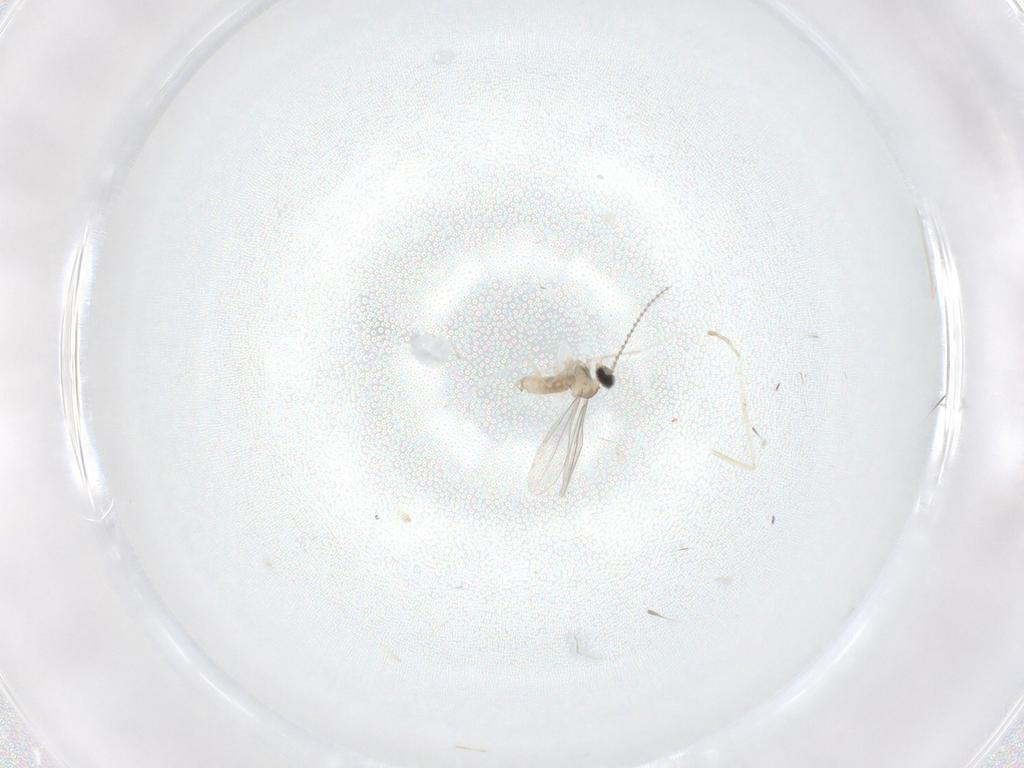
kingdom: Animalia
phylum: Arthropoda
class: Insecta
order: Diptera
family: Cecidomyiidae
